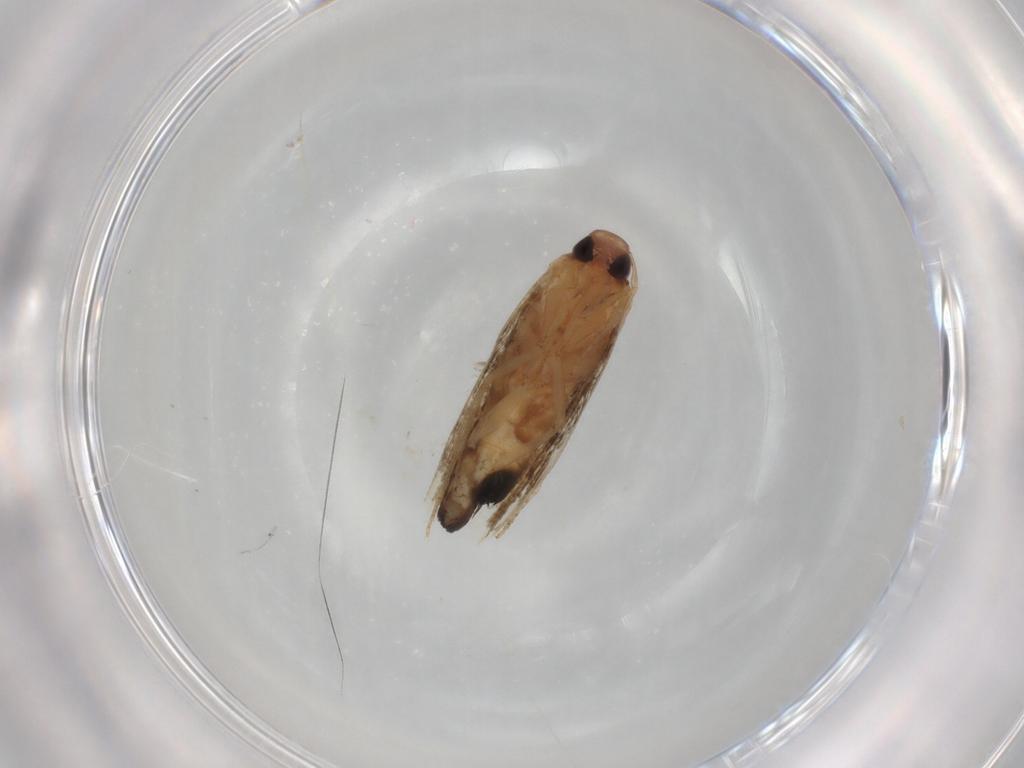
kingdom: Animalia
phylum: Arthropoda
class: Insecta
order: Lepidoptera
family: Cosmopterigidae
